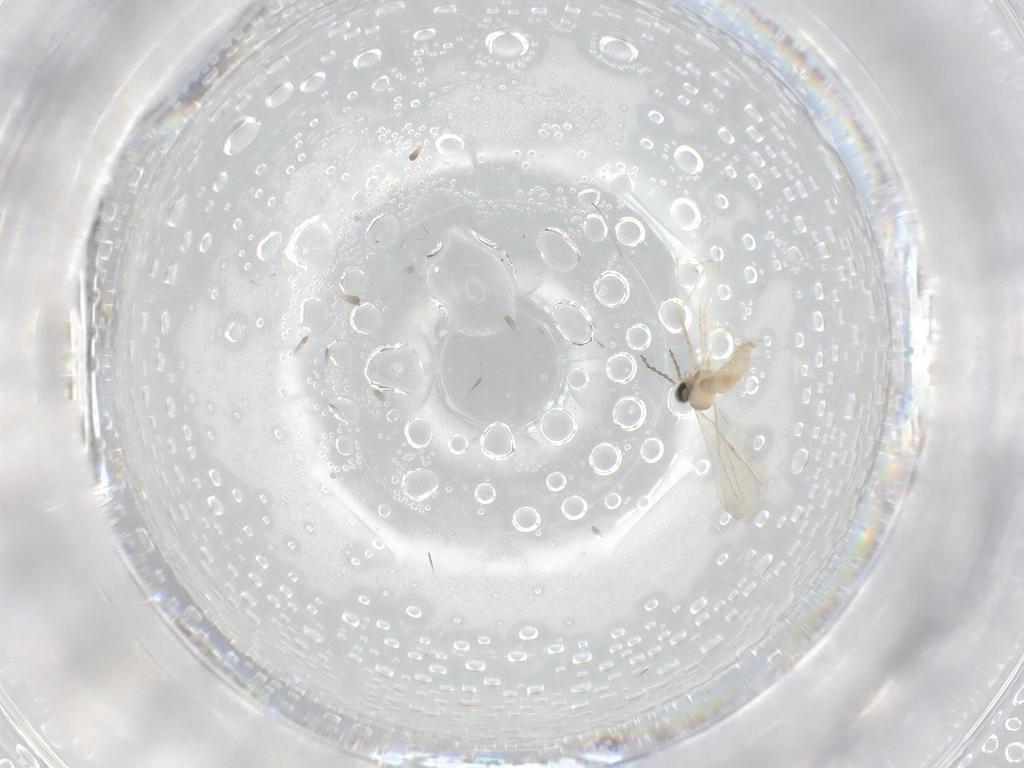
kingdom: Animalia
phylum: Arthropoda
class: Insecta
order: Diptera
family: Cecidomyiidae
